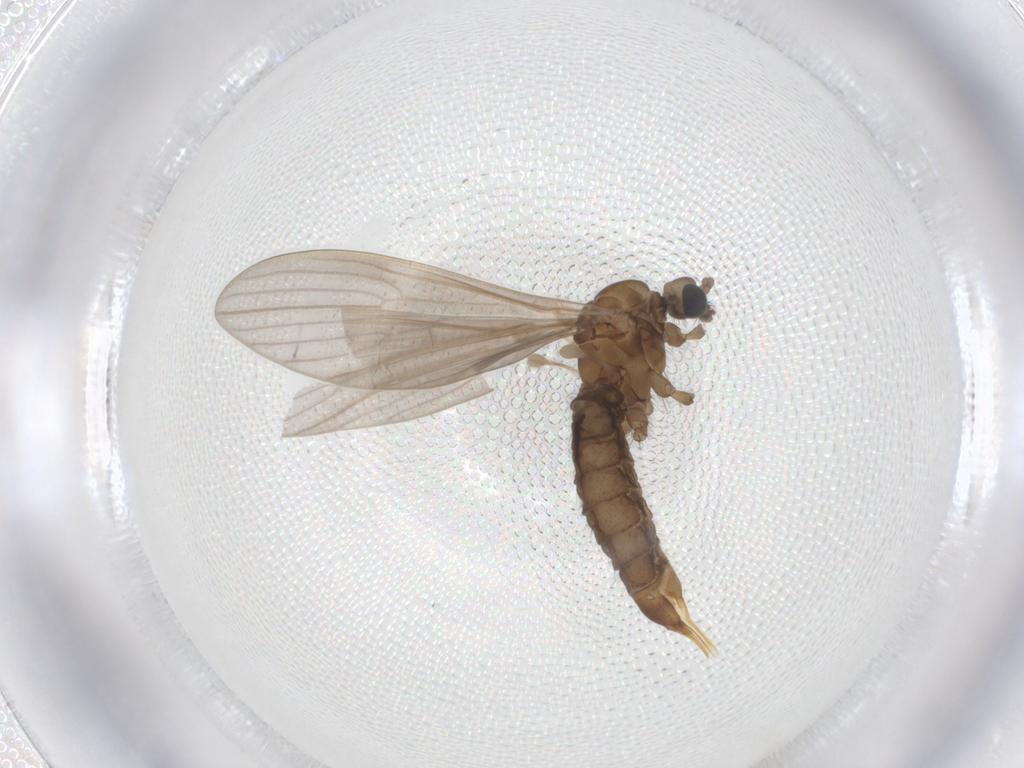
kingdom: Animalia
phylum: Arthropoda
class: Insecta
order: Diptera
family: Limoniidae
